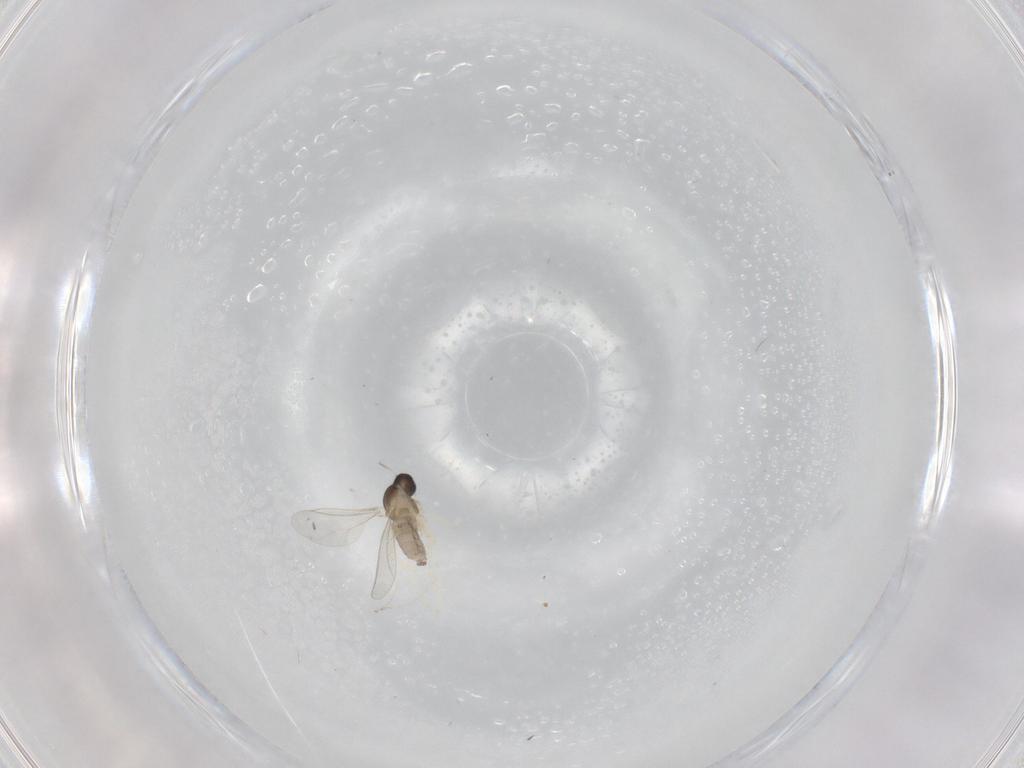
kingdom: Animalia
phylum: Arthropoda
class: Insecta
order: Diptera
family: Cecidomyiidae
